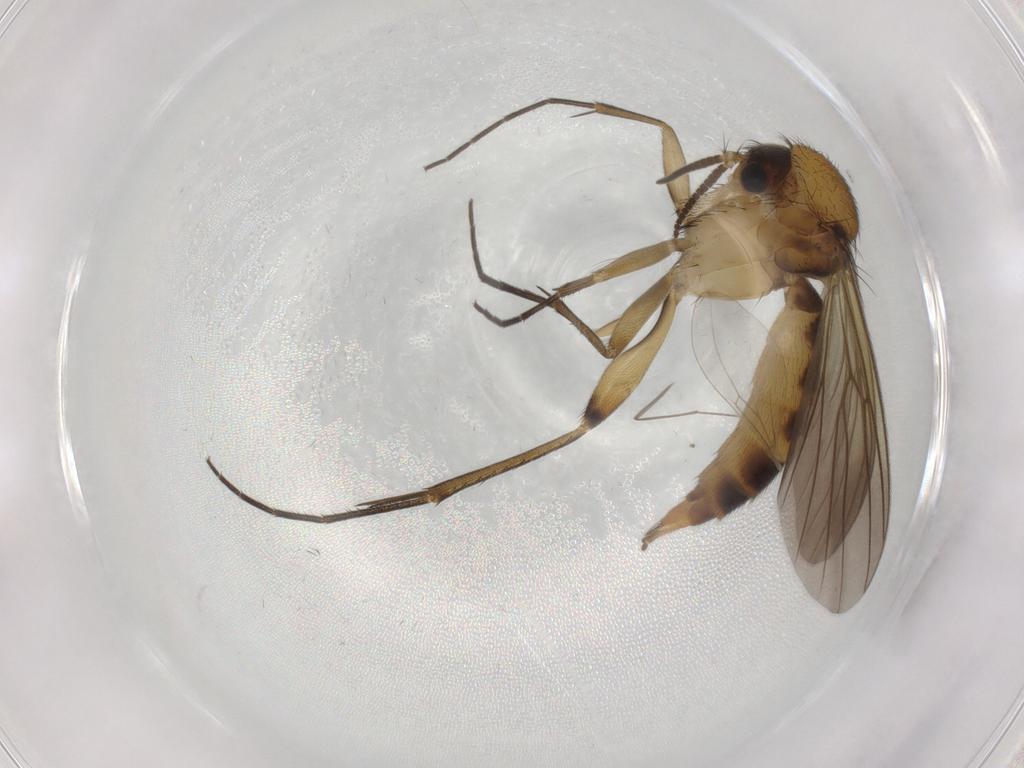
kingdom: Animalia
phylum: Arthropoda
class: Insecta
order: Diptera
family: Mycetophilidae
